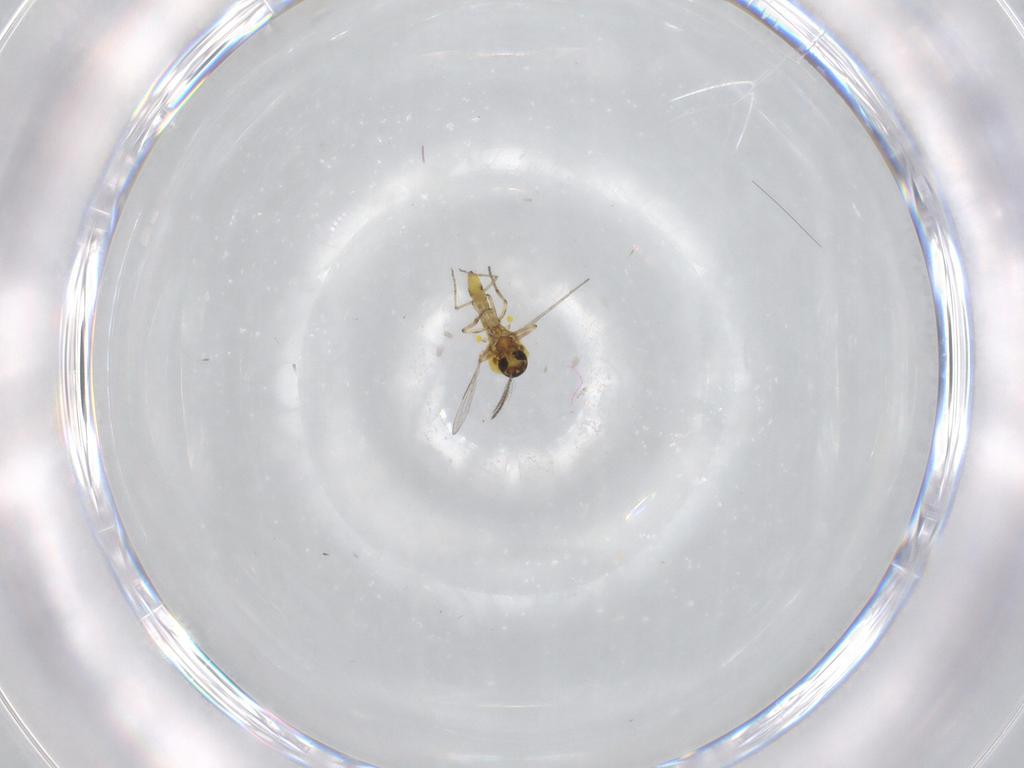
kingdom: Animalia
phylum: Arthropoda
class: Insecta
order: Diptera
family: Ceratopogonidae
